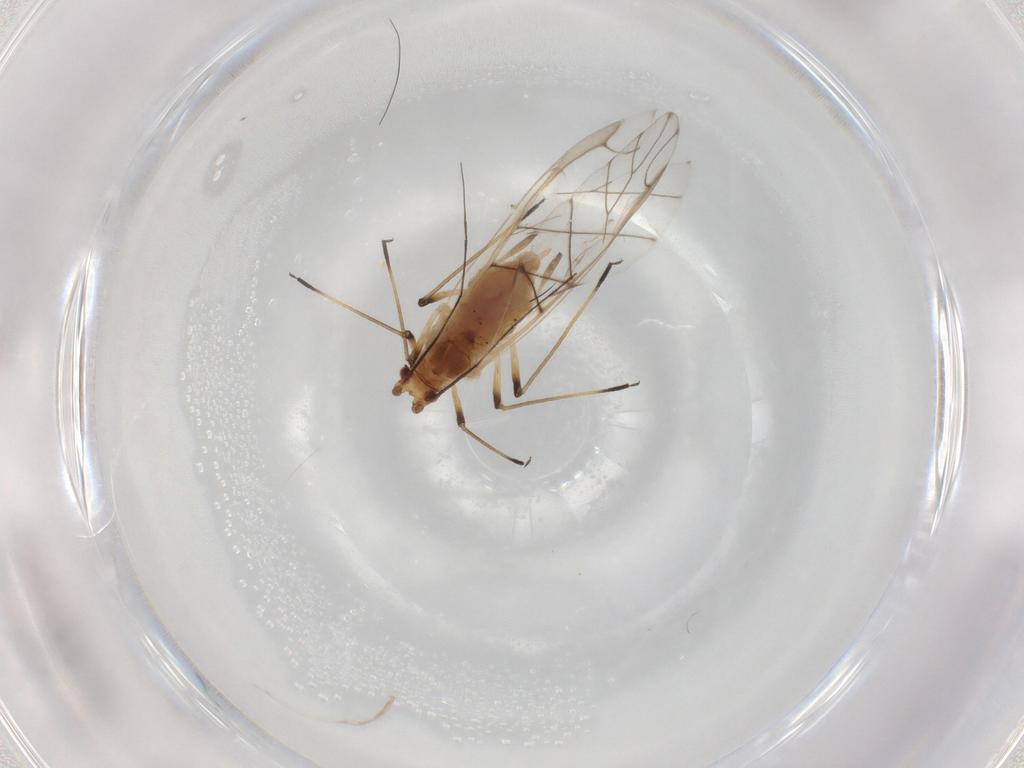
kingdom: Animalia
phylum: Arthropoda
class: Insecta
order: Hemiptera
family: Aphididae
